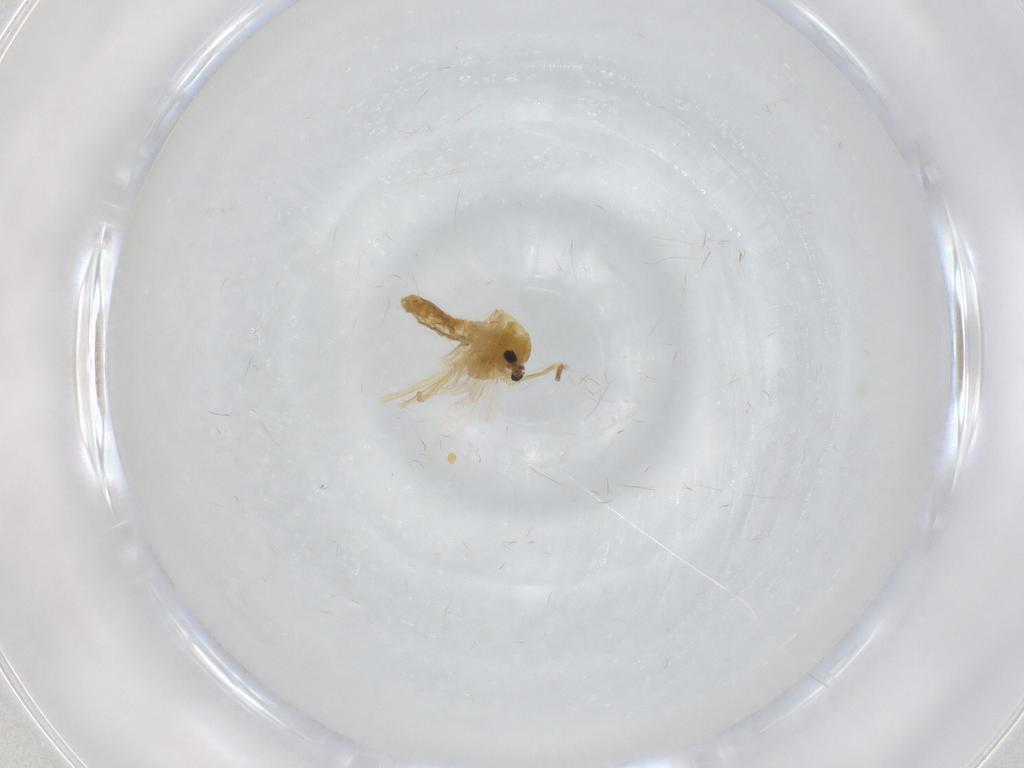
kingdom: Animalia
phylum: Arthropoda
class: Insecta
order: Diptera
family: Chironomidae
